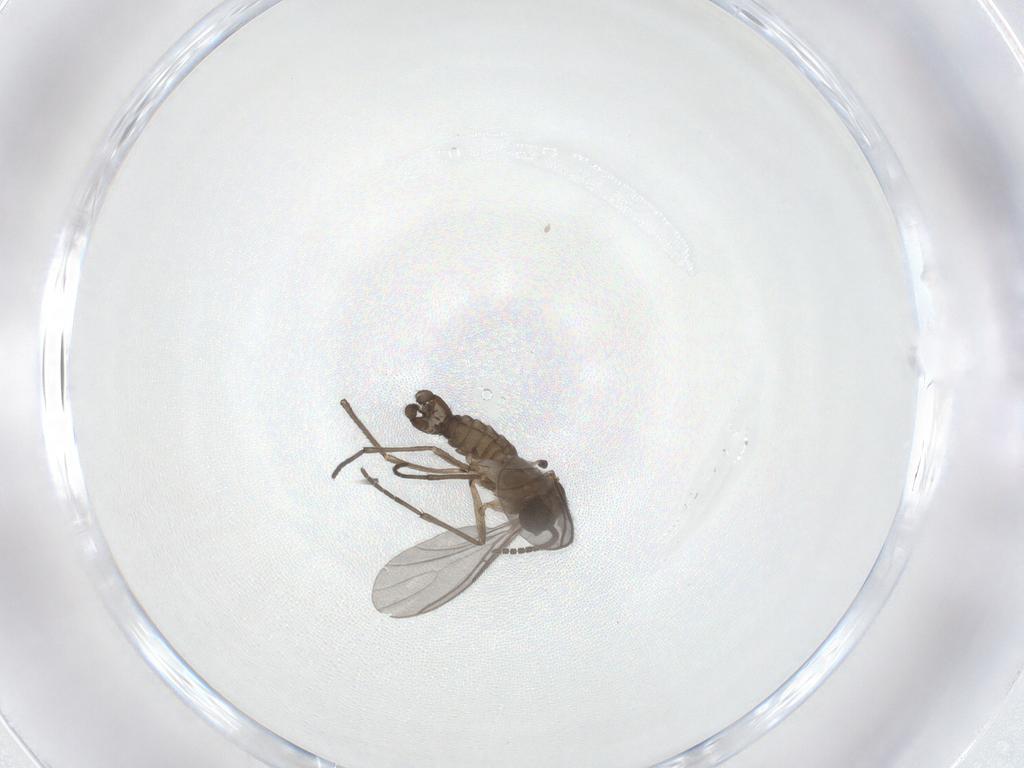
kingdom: Animalia
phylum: Arthropoda
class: Insecta
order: Diptera
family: Sciaridae
